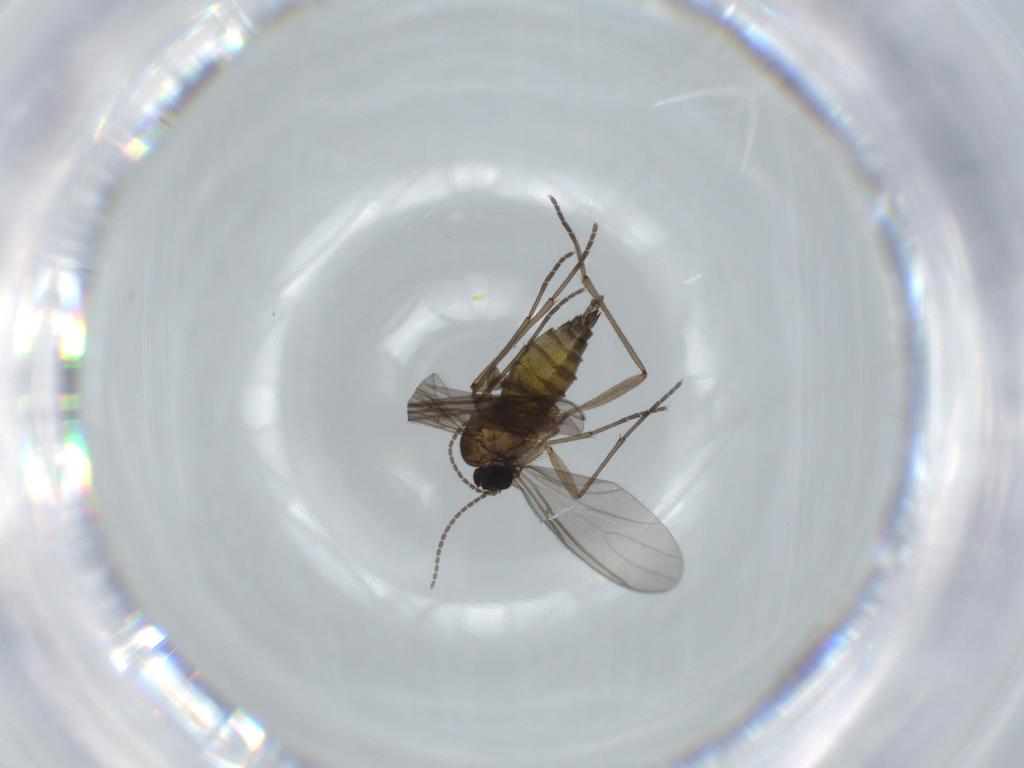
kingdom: Animalia
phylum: Arthropoda
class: Insecta
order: Diptera
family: Sciaridae
